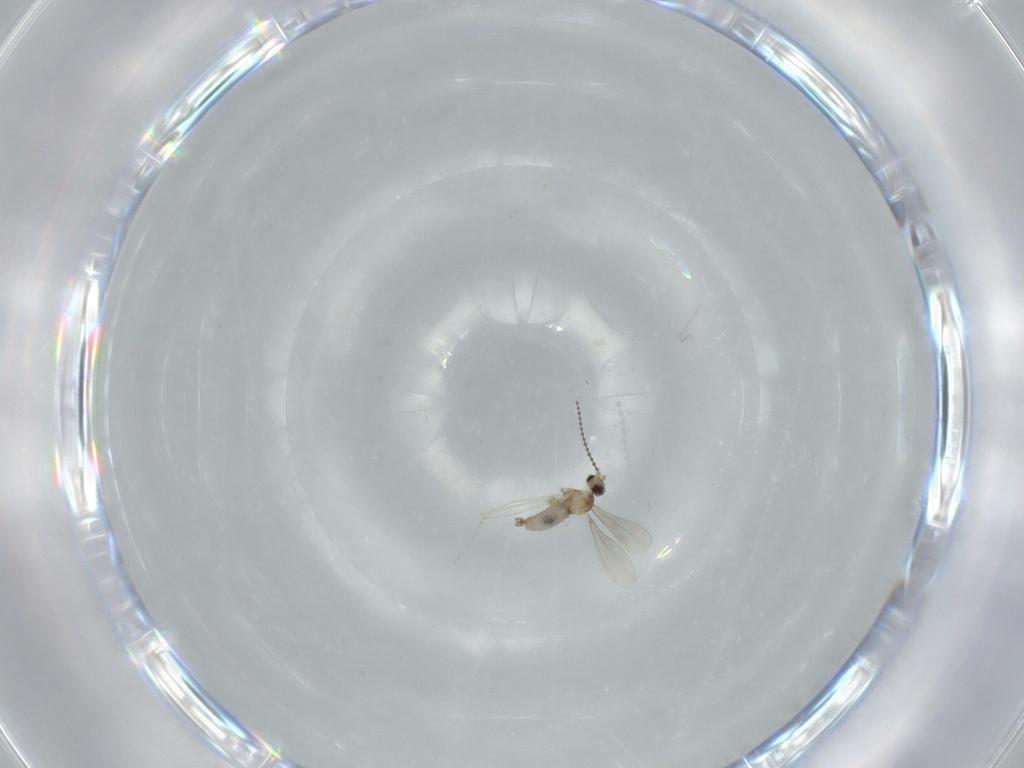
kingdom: Animalia
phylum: Arthropoda
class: Insecta
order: Diptera
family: Cecidomyiidae
